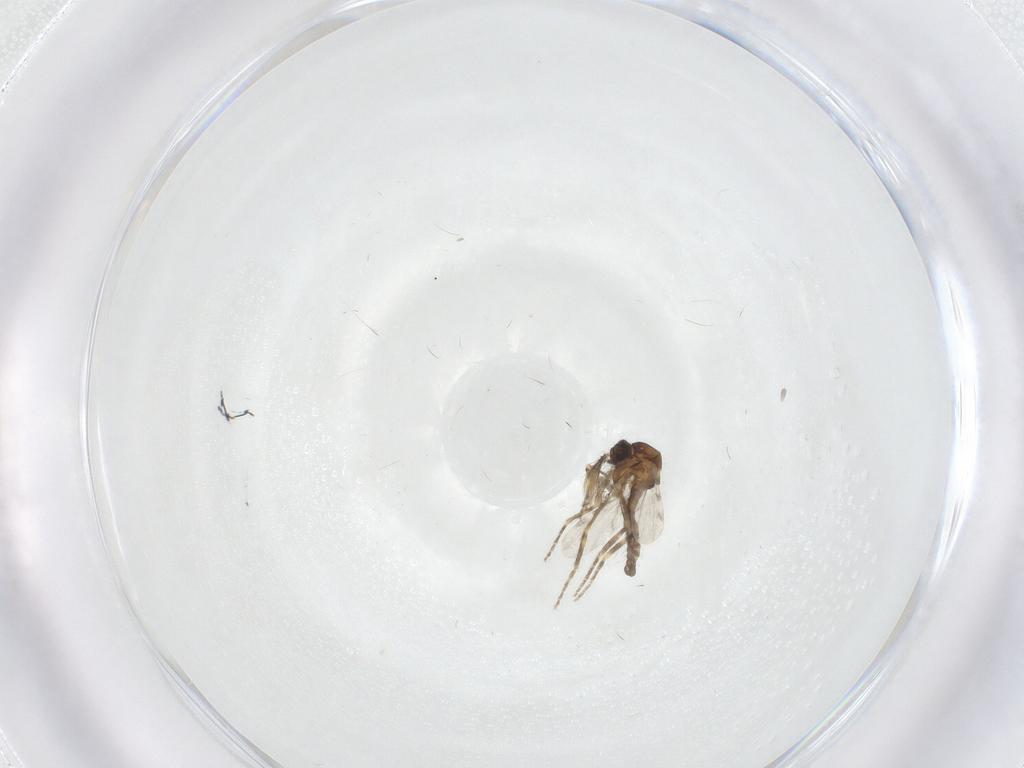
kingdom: Animalia
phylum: Arthropoda
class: Insecta
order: Diptera
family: Ceratopogonidae
